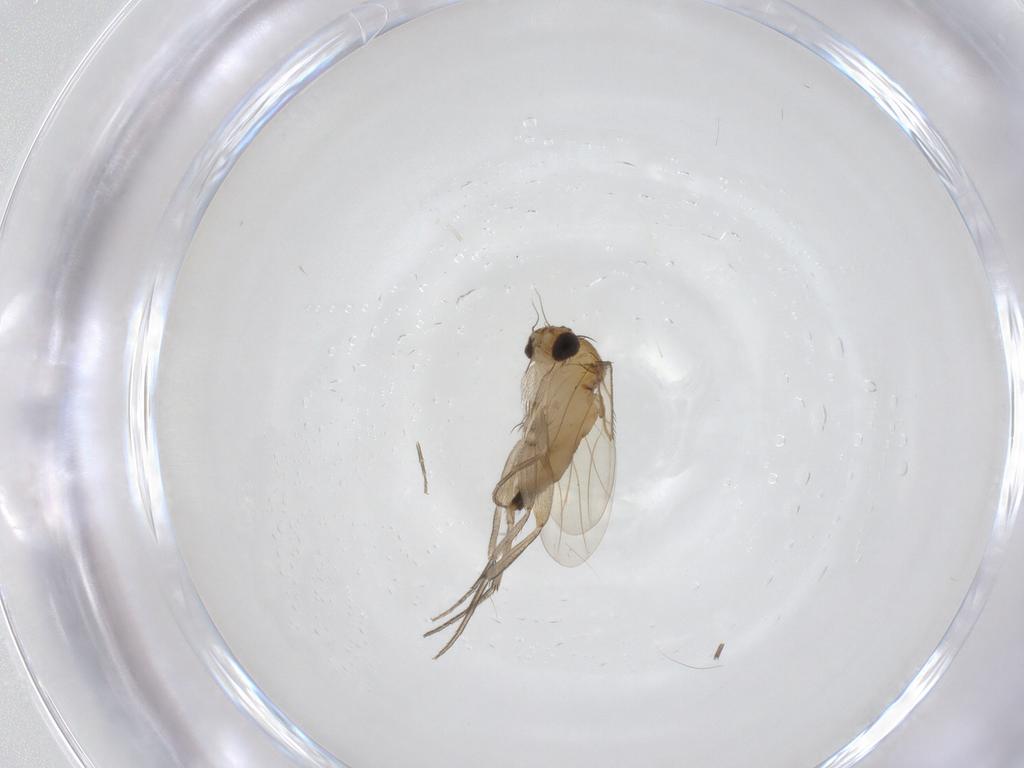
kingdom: Animalia
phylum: Arthropoda
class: Insecta
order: Diptera
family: Phoridae
